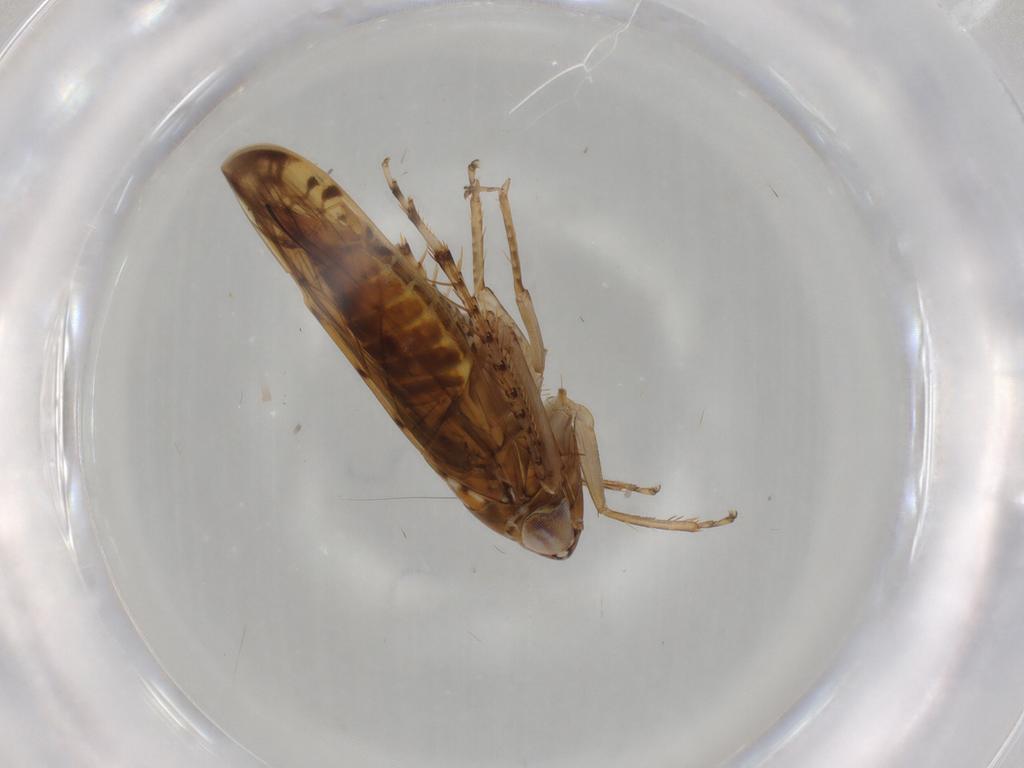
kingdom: Animalia
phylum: Arthropoda
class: Insecta
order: Hemiptera
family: Cicadellidae
